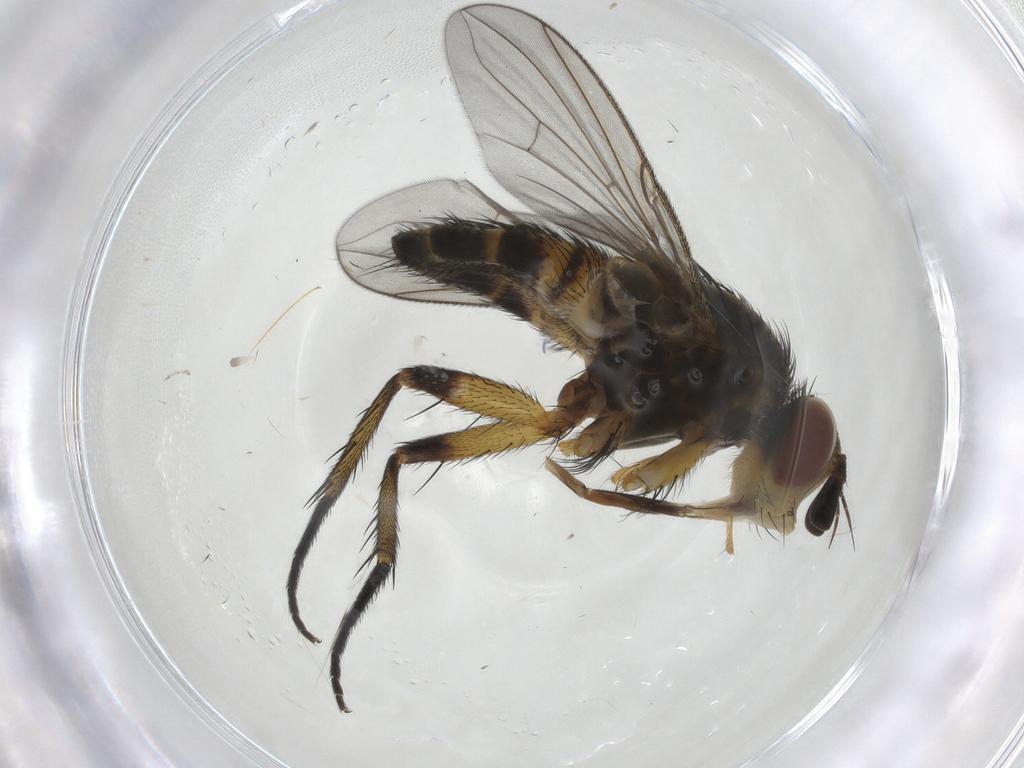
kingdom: Animalia
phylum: Arthropoda
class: Insecta
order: Diptera
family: Tachinidae
